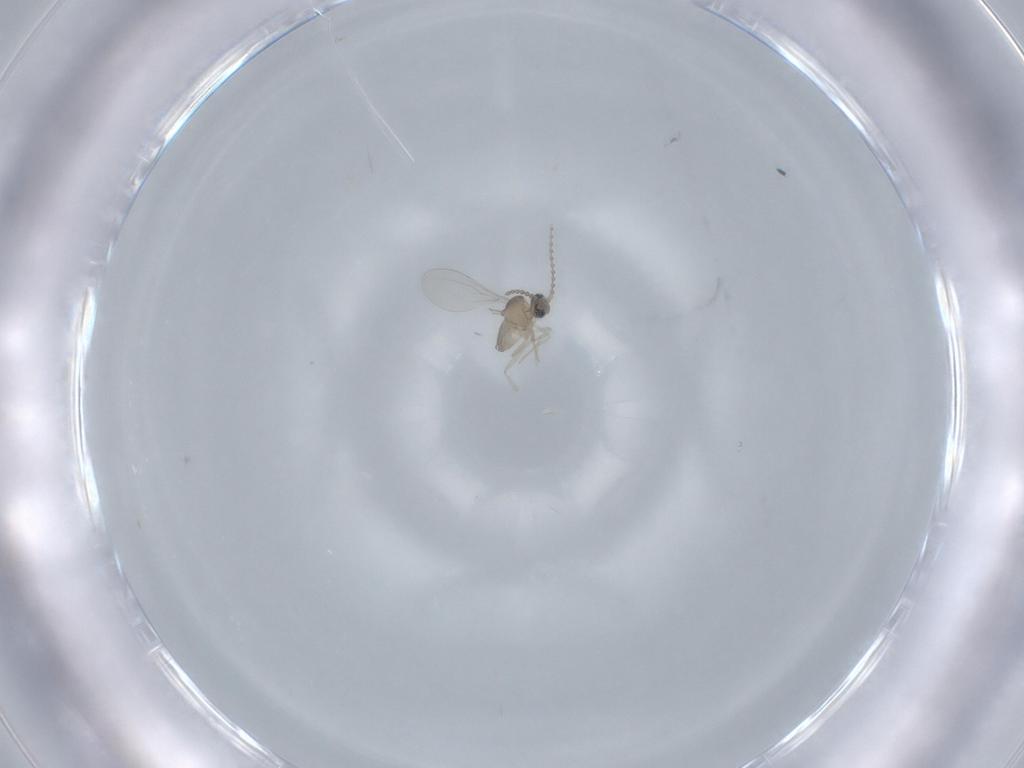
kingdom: Animalia
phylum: Arthropoda
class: Insecta
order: Diptera
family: Cecidomyiidae
